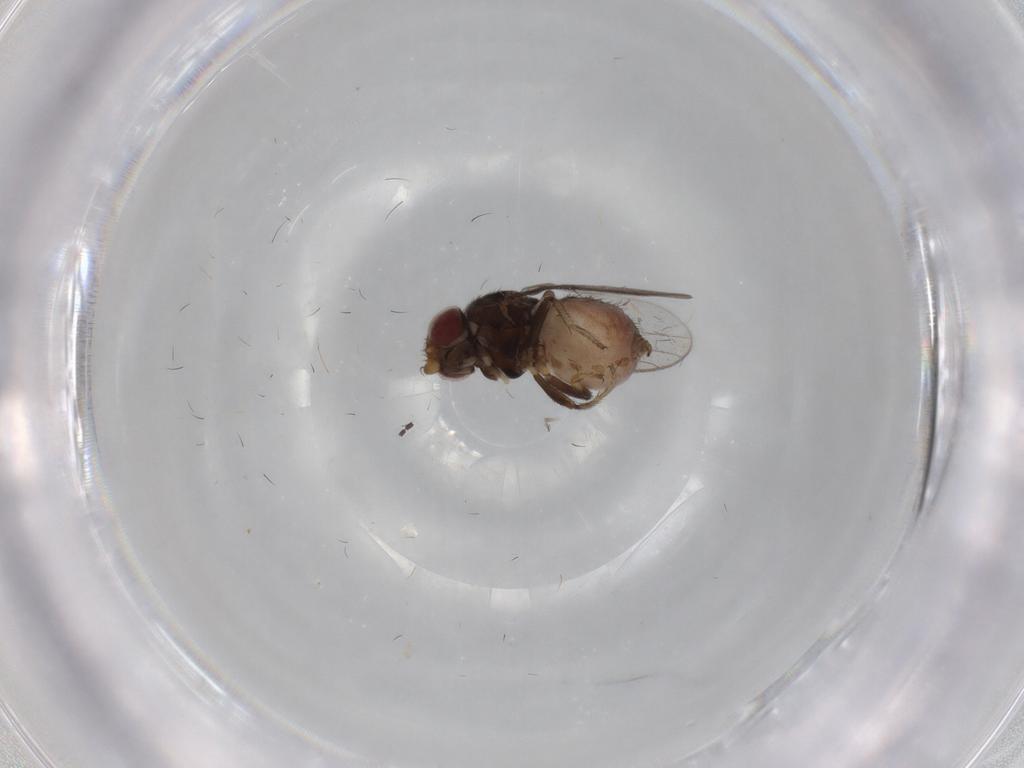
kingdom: Animalia
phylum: Arthropoda
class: Insecta
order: Diptera
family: Chloropidae
